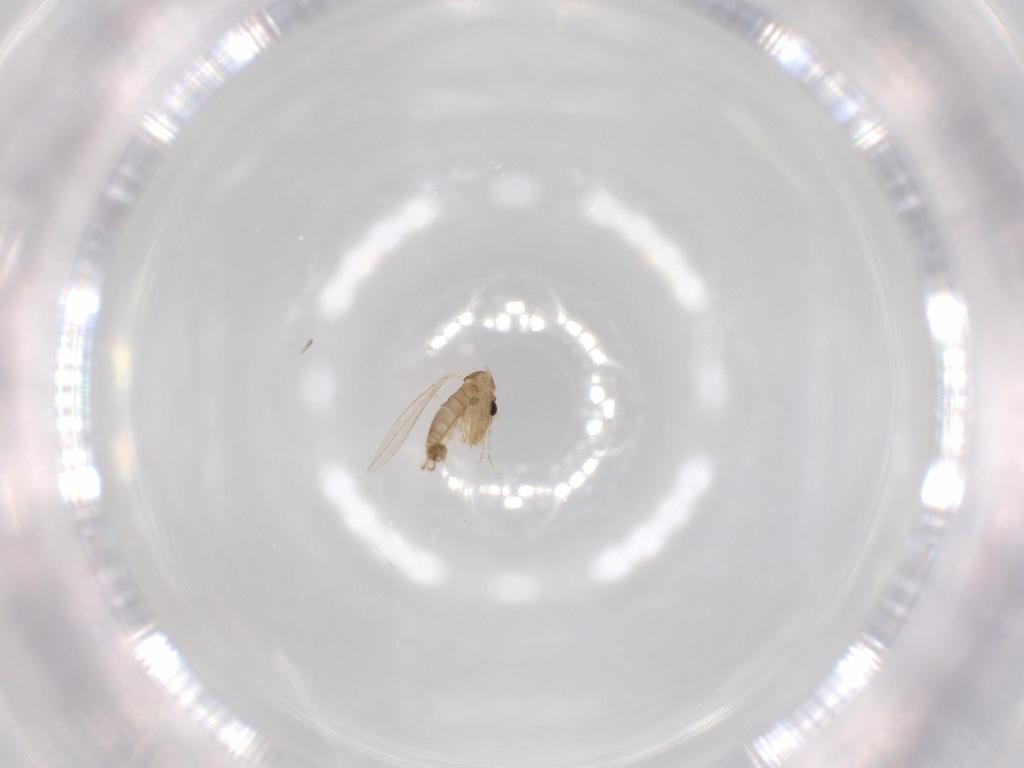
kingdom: Animalia
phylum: Arthropoda
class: Insecta
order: Diptera
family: Psychodidae
